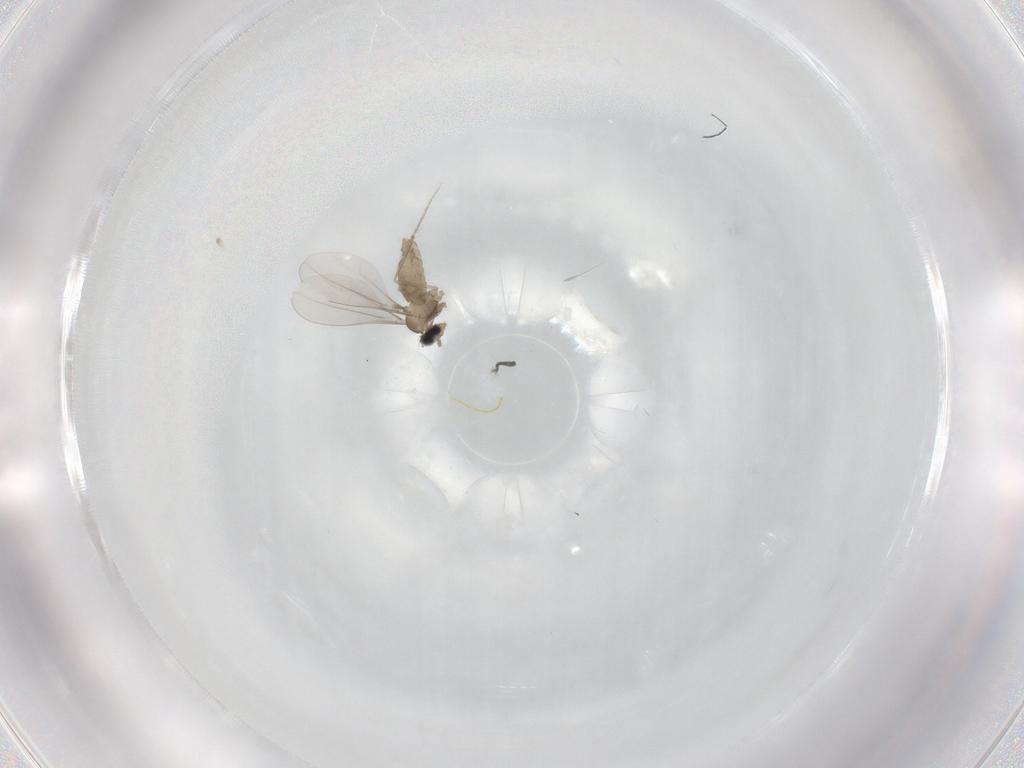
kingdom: Animalia
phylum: Arthropoda
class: Insecta
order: Diptera
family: Cecidomyiidae
